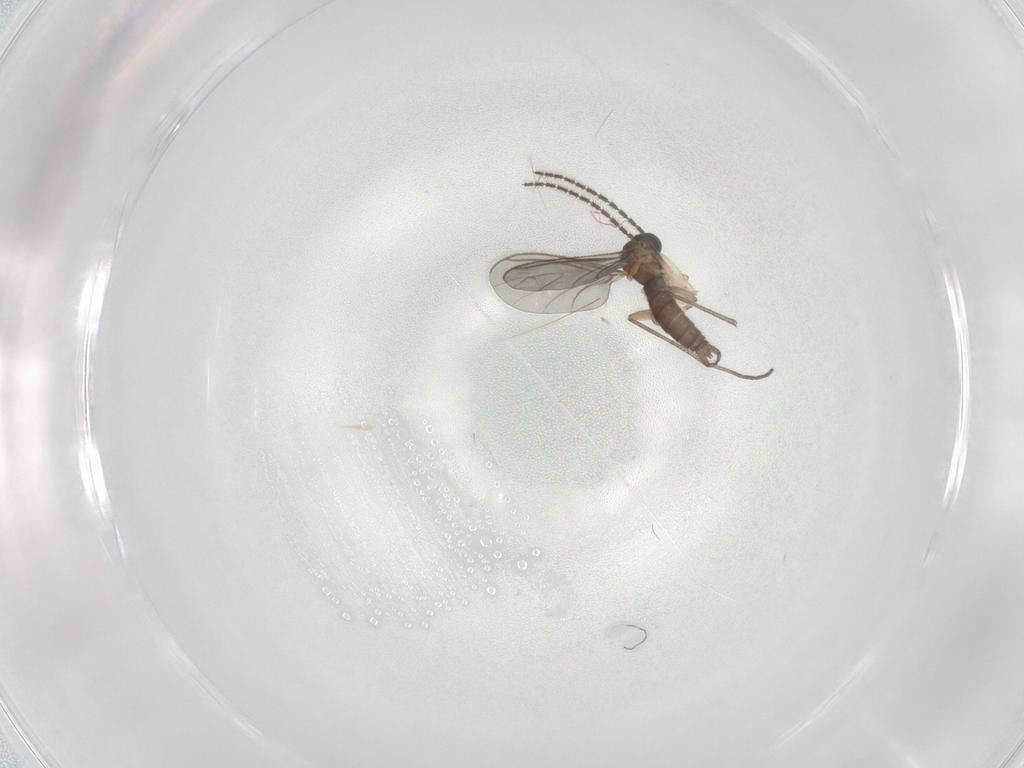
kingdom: Animalia
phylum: Arthropoda
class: Insecta
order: Diptera
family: Sciaridae
